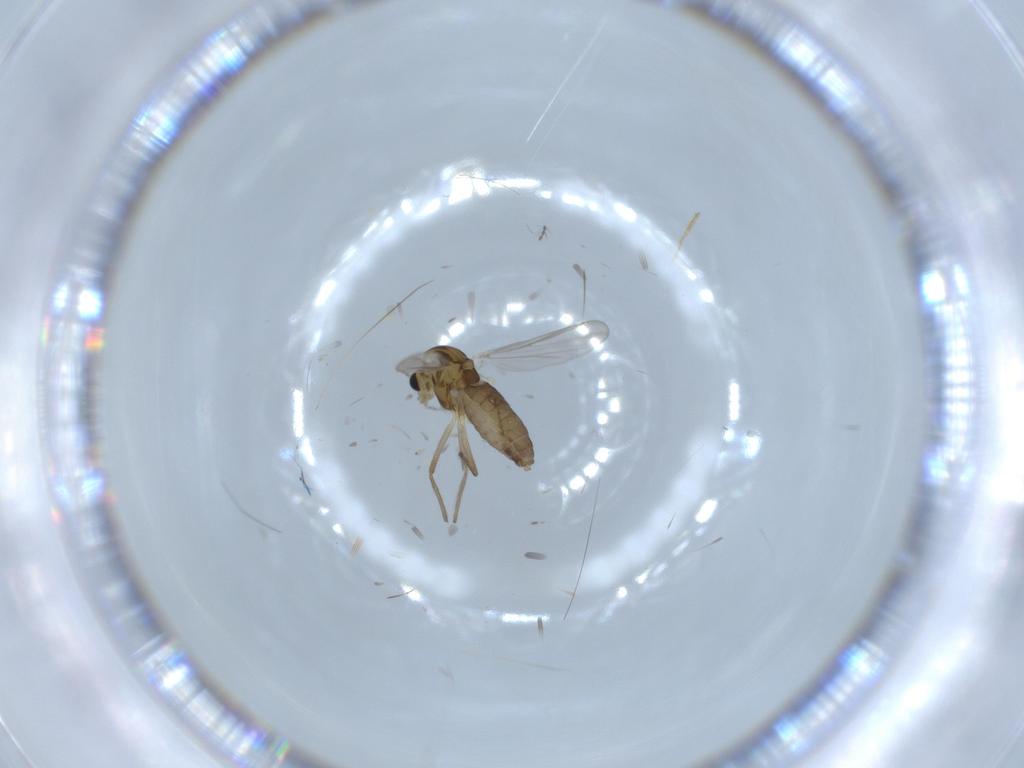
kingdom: Animalia
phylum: Arthropoda
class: Insecta
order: Diptera
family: Chironomidae
